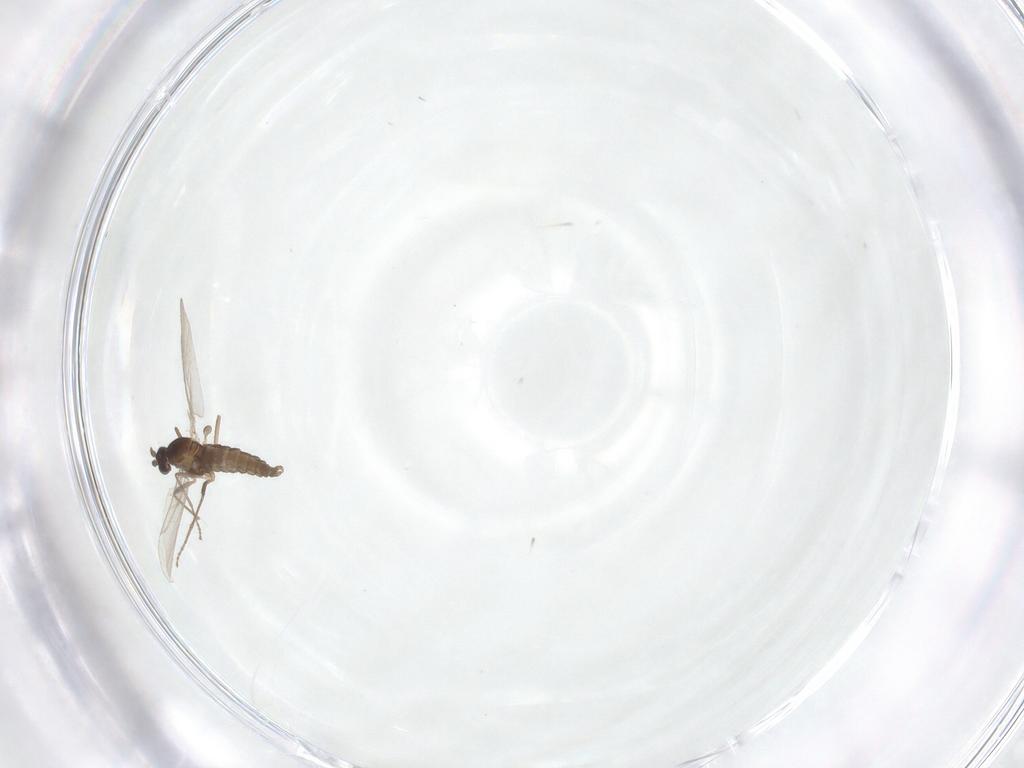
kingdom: Animalia
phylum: Arthropoda
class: Insecta
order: Diptera
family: Cecidomyiidae
